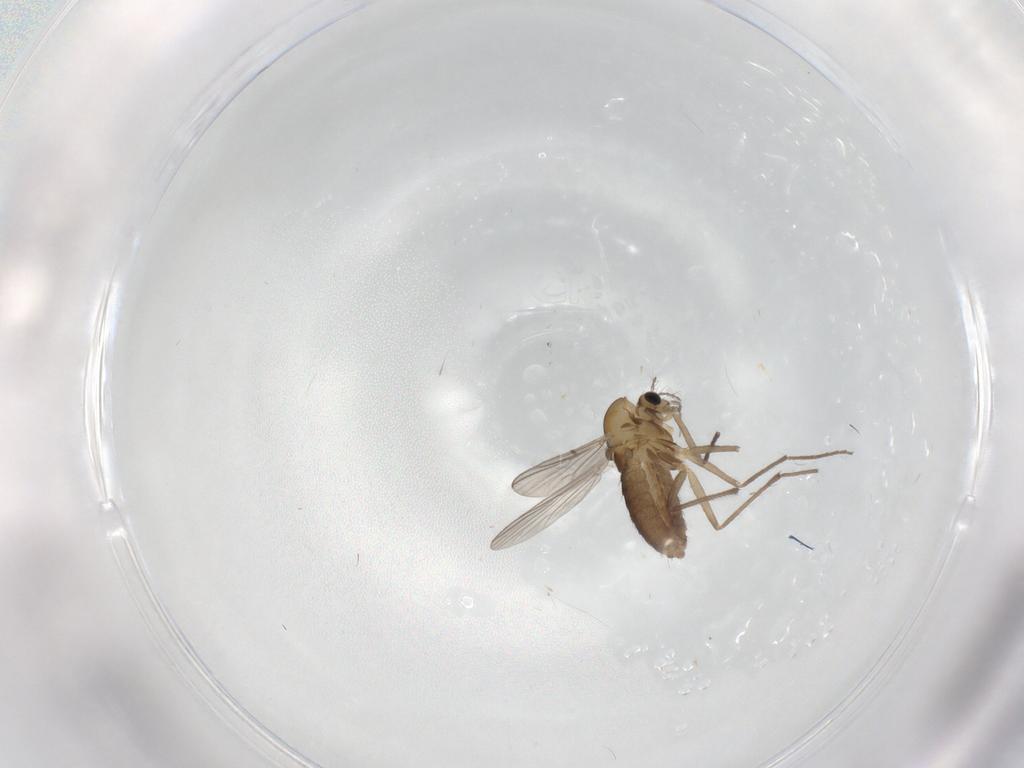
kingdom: Animalia
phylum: Arthropoda
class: Insecta
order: Diptera
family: Chironomidae
